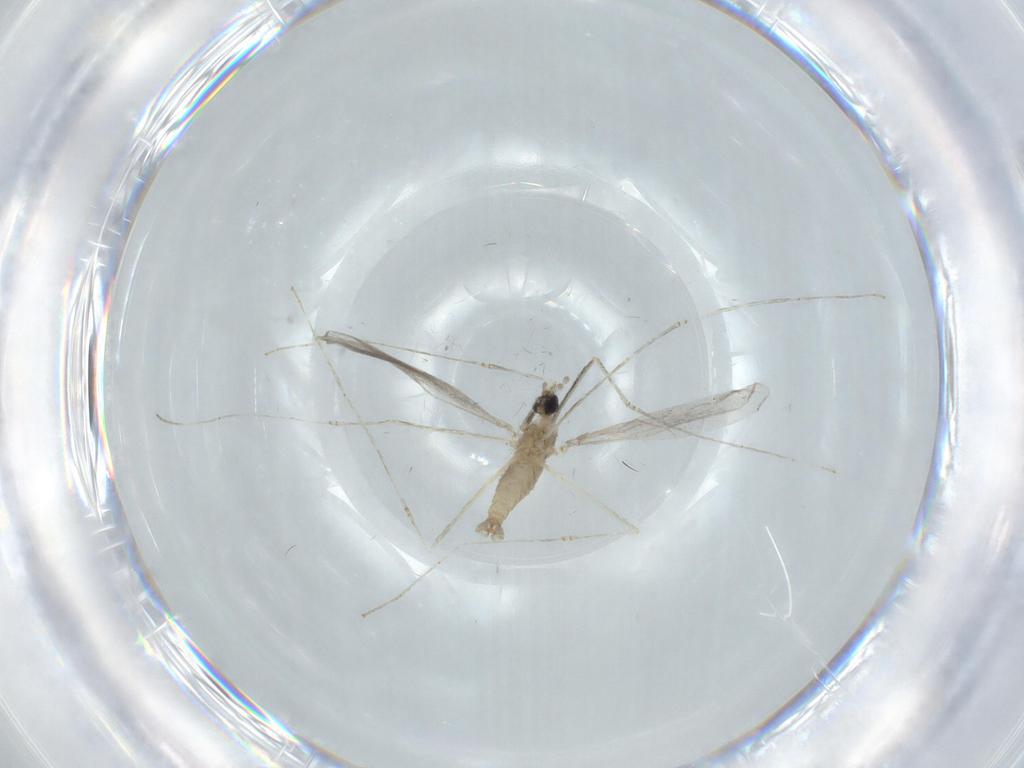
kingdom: Animalia
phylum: Arthropoda
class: Insecta
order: Diptera
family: Cecidomyiidae
